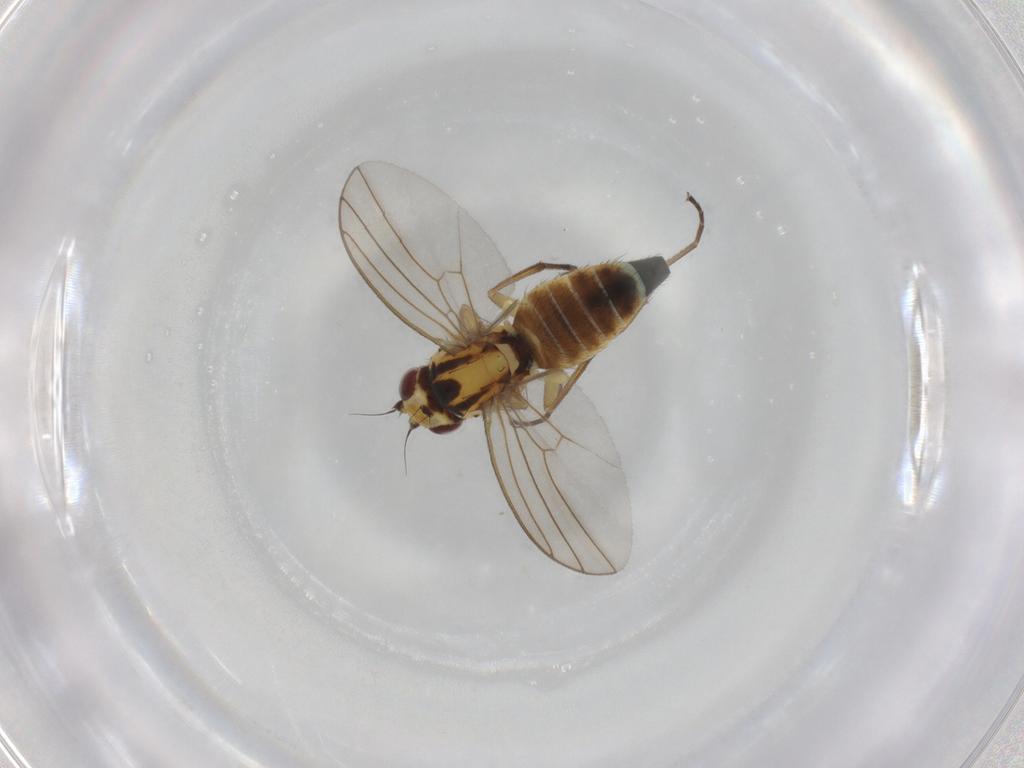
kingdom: Animalia
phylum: Arthropoda
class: Insecta
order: Diptera
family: Agromyzidae
